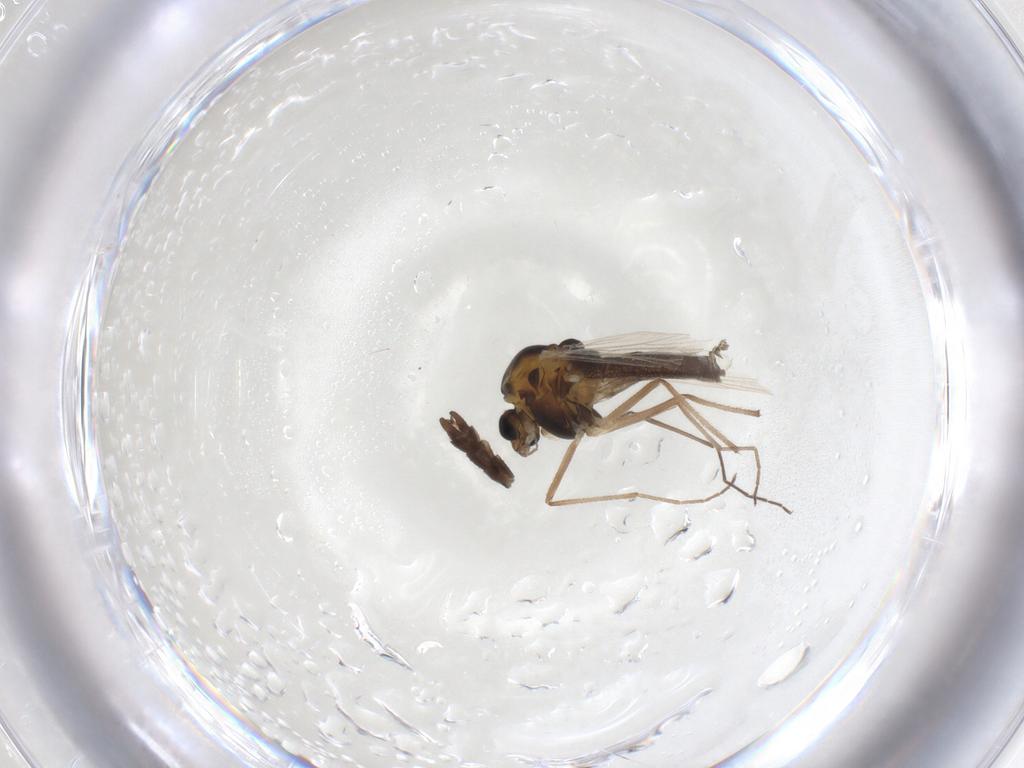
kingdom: Animalia
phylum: Arthropoda
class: Insecta
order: Diptera
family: Chironomidae
